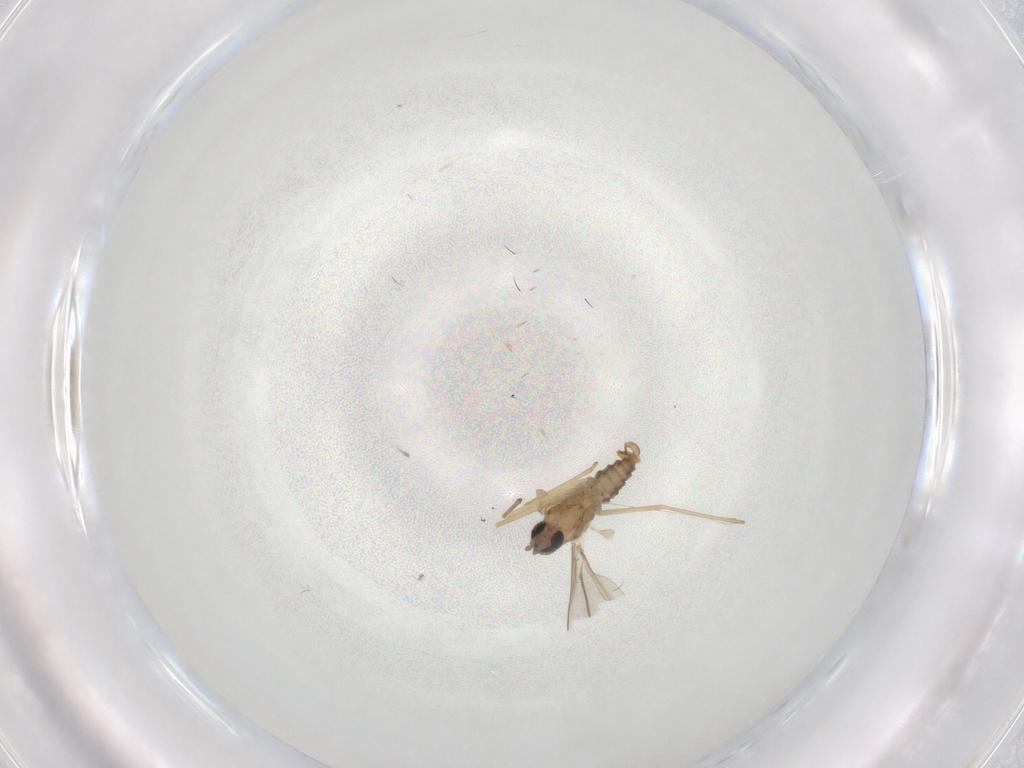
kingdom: Animalia
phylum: Arthropoda
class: Insecta
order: Diptera
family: Cecidomyiidae
